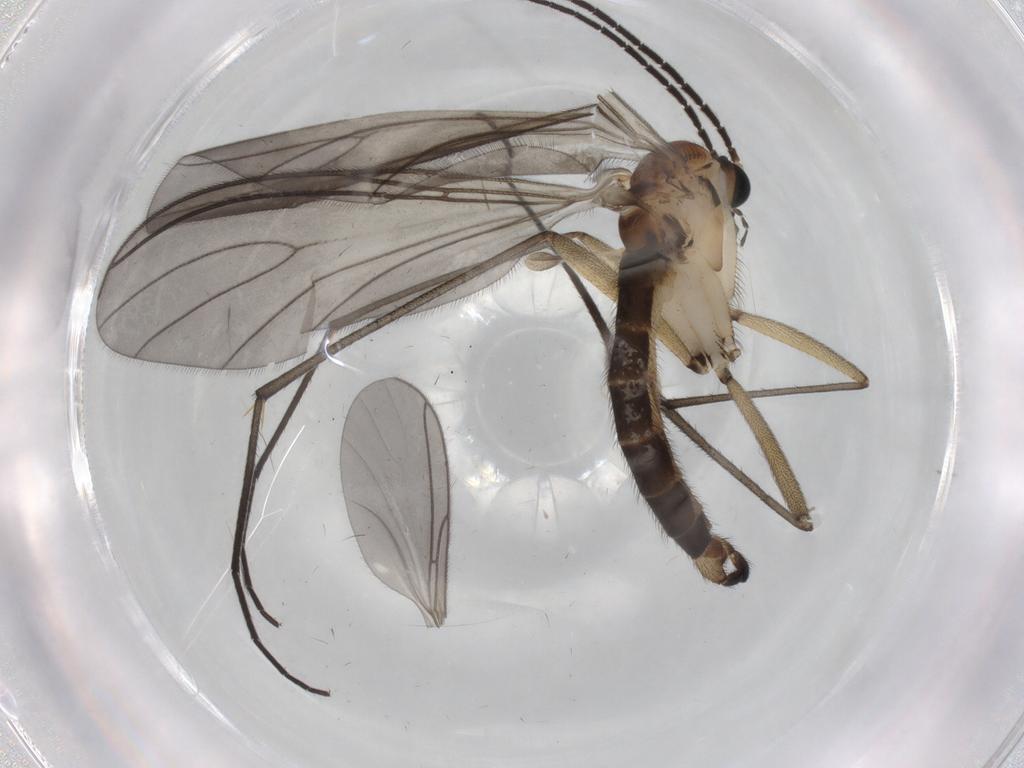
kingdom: Animalia
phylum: Arthropoda
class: Insecta
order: Diptera
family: Sciaridae
